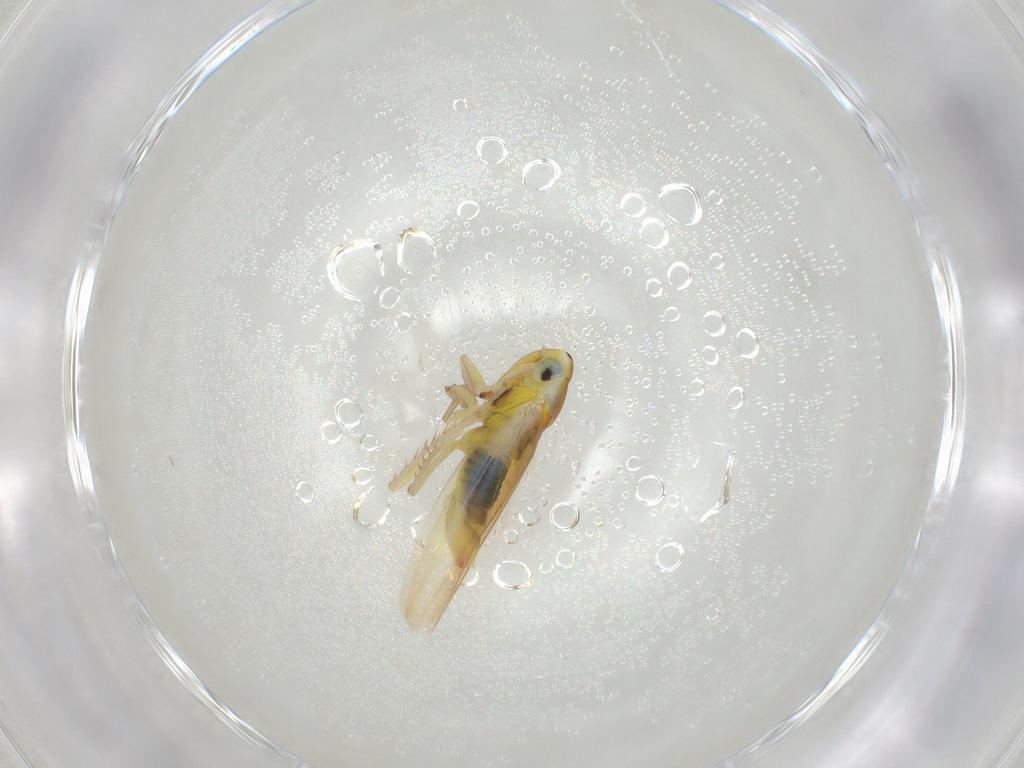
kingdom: Animalia
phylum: Arthropoda
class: Insecta
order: Hemiptera
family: Cicadellidae
